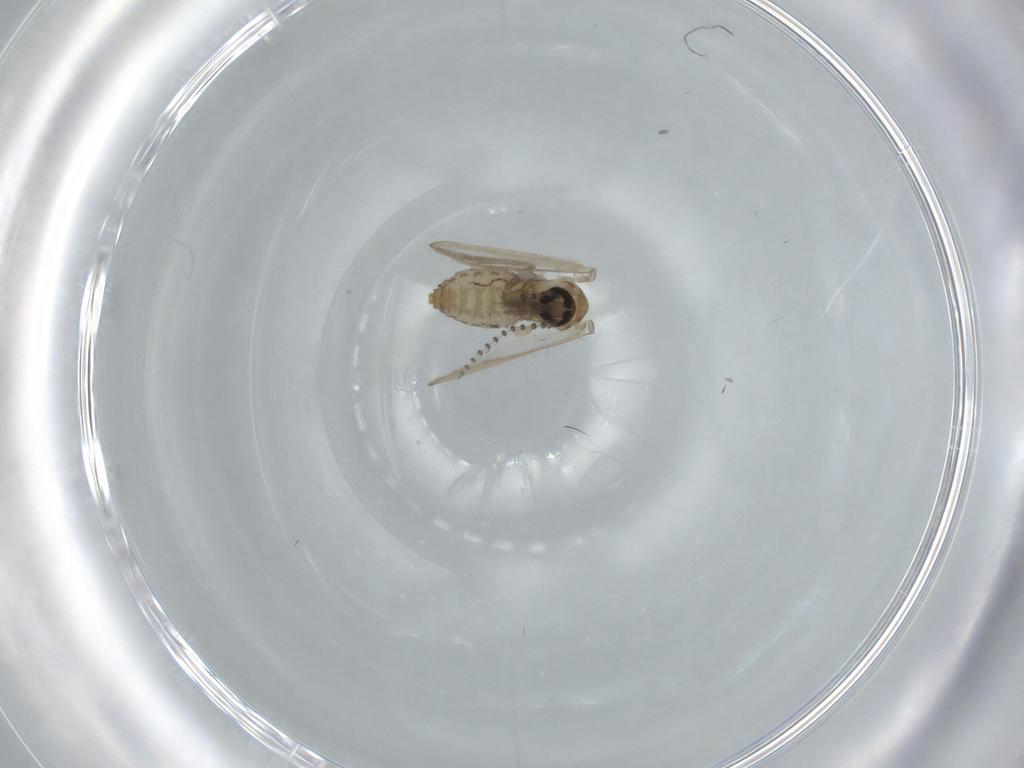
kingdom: Animalia
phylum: Arthropoda
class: Insecta
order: Diptera
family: Psychodidae
